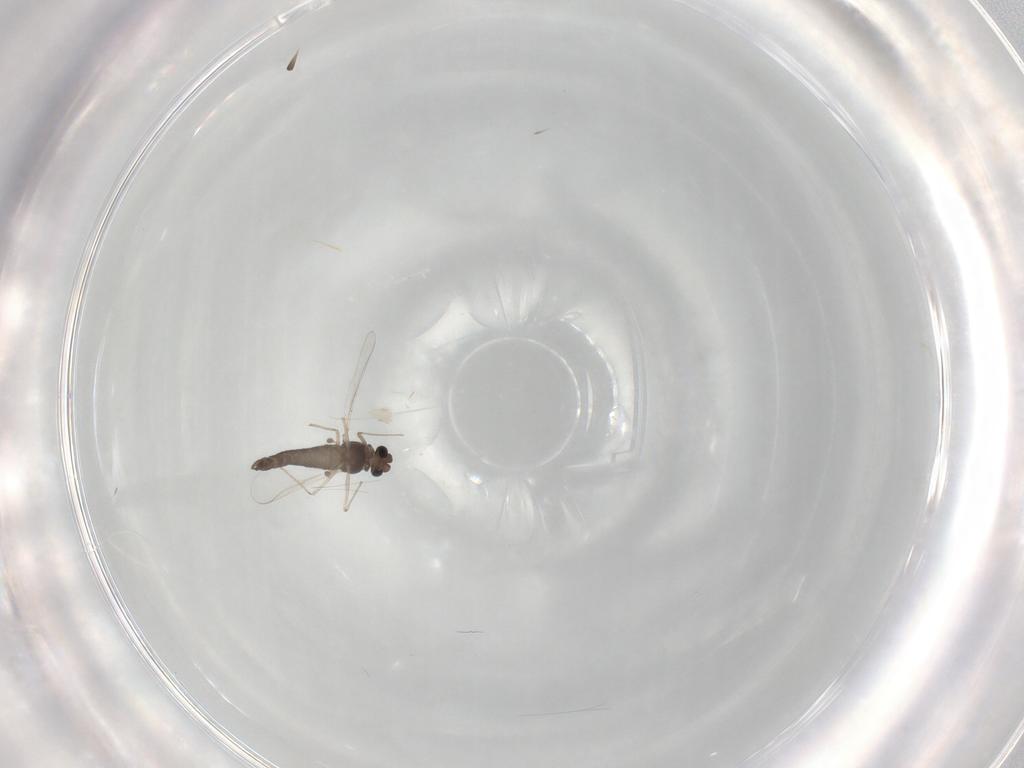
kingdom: Animalia
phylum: Arthropoda
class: Insecta
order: Diptera
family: Chironomidae
